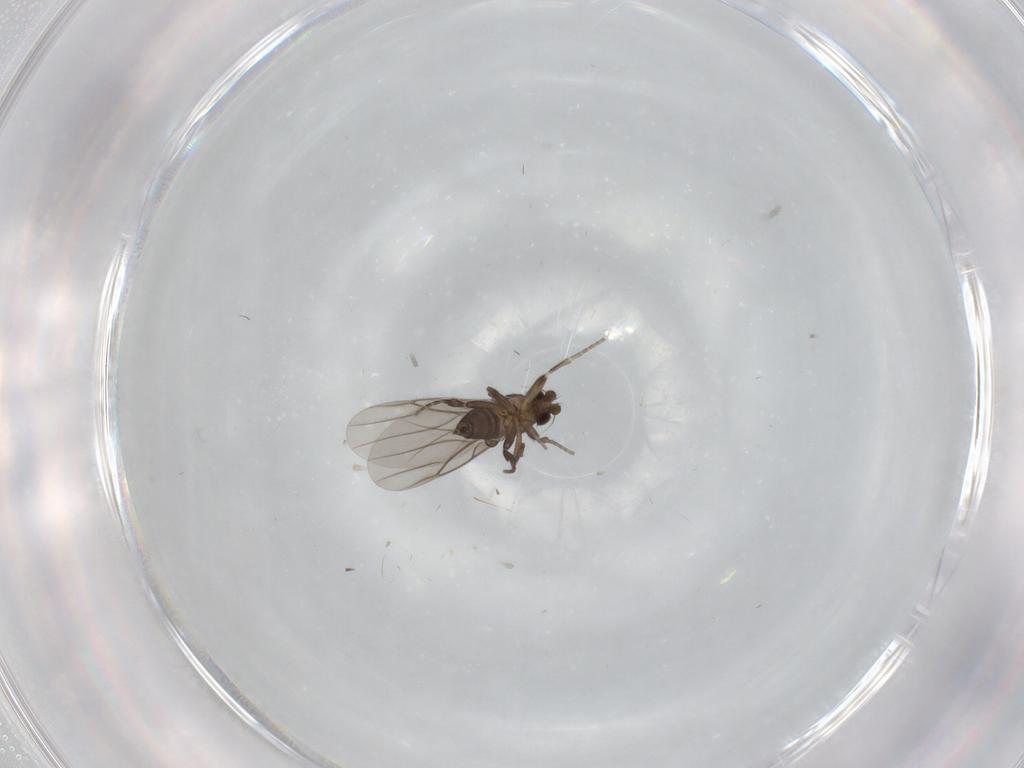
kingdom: Animalia
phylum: Arthropoda
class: Insecta
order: Diptera
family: Phoridae
